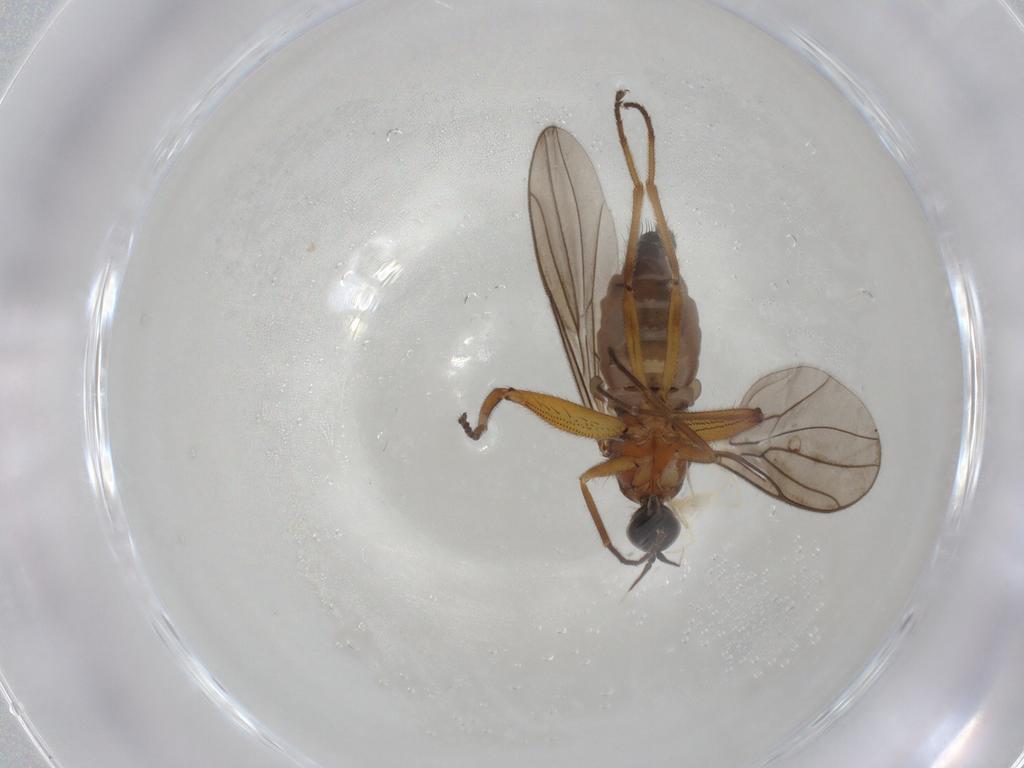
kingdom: Animalia
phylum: Arthropoda
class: Insecta
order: Diptera
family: Hybotidae
